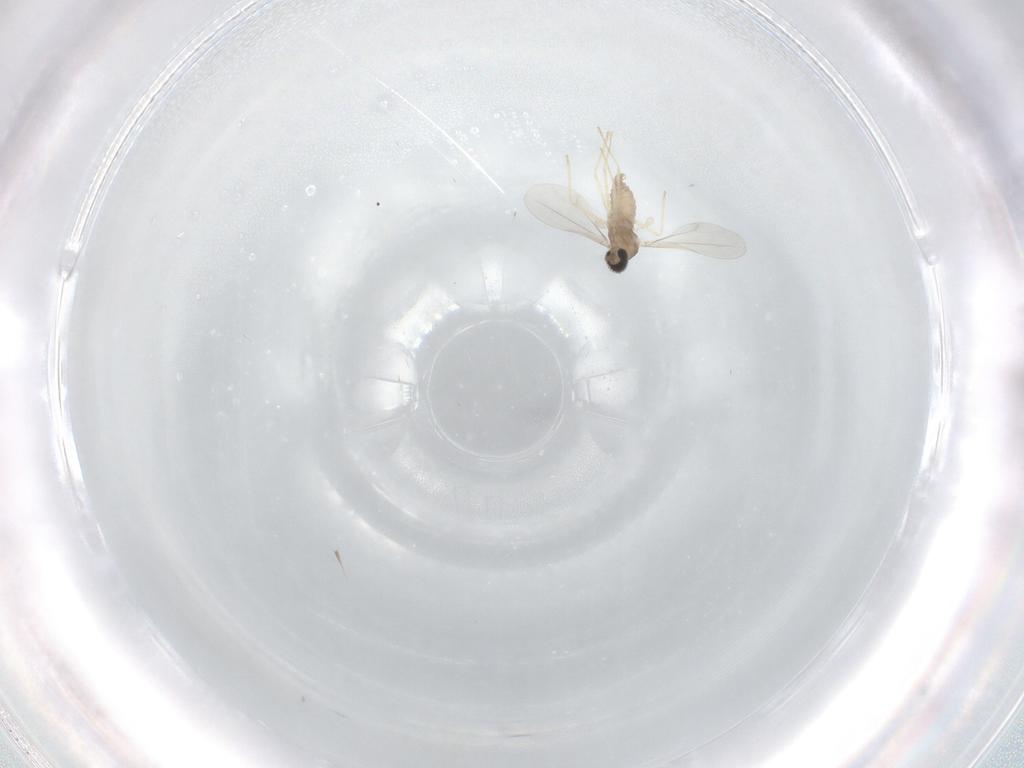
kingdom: Animalia
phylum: Arthropoda
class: Insecta
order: Diptera
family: Cecidomyiidae
